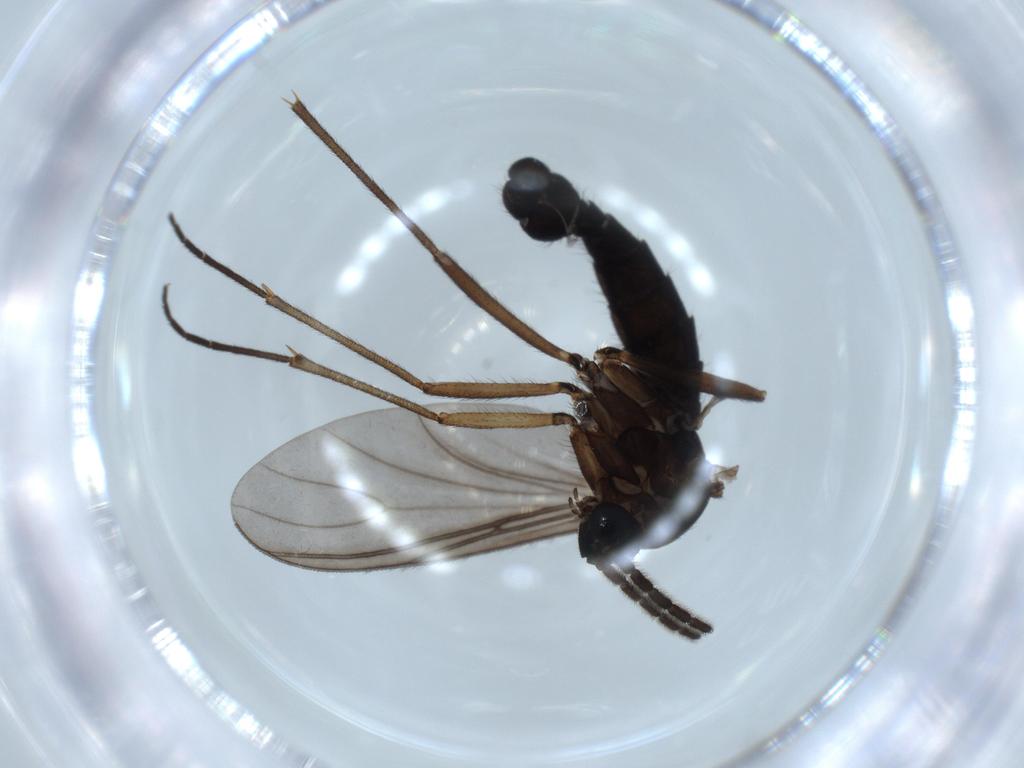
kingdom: Animalia
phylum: Arthropoda
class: Insecta
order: Diptera
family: Sciaridae
